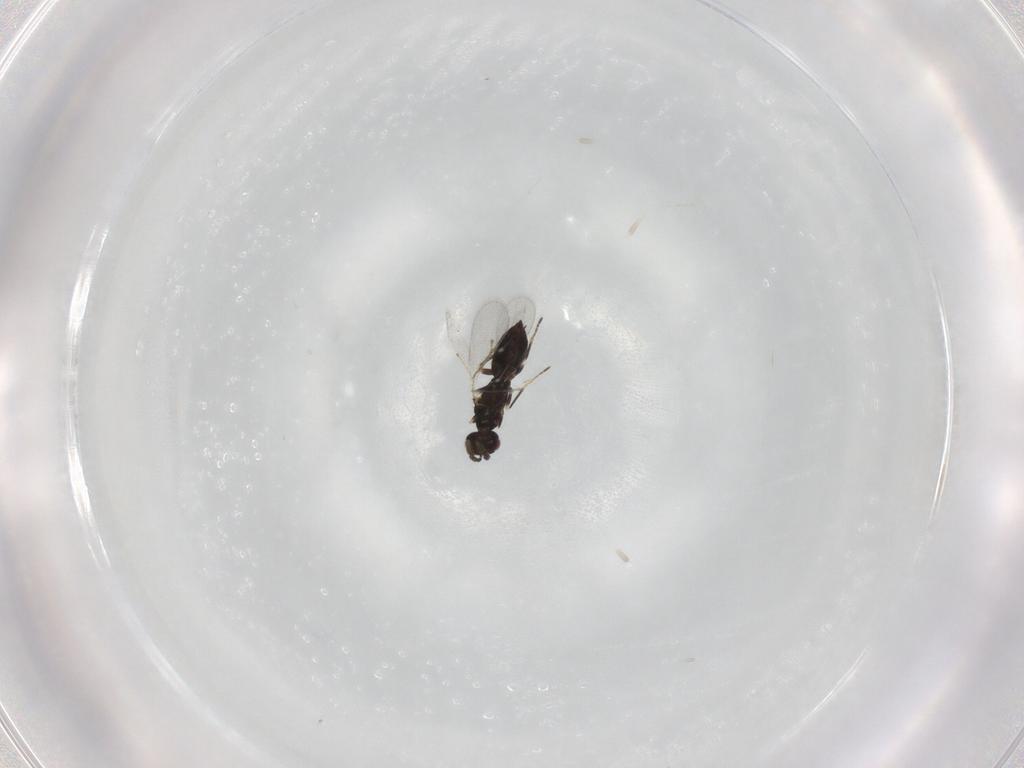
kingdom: Animalia
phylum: Arthropoda
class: Insecta
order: Hymenoptera
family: Eulophidae
